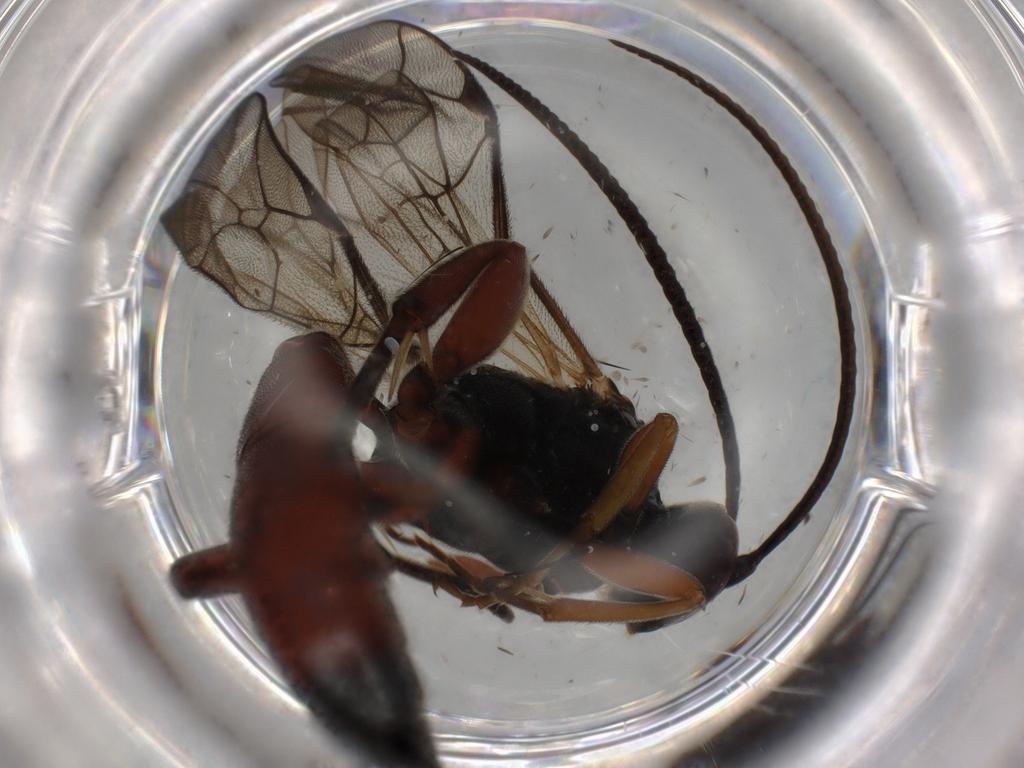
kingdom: Animalia
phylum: Arthropoda
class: Insecta
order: Hymenoptera
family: Ichneumonidae
